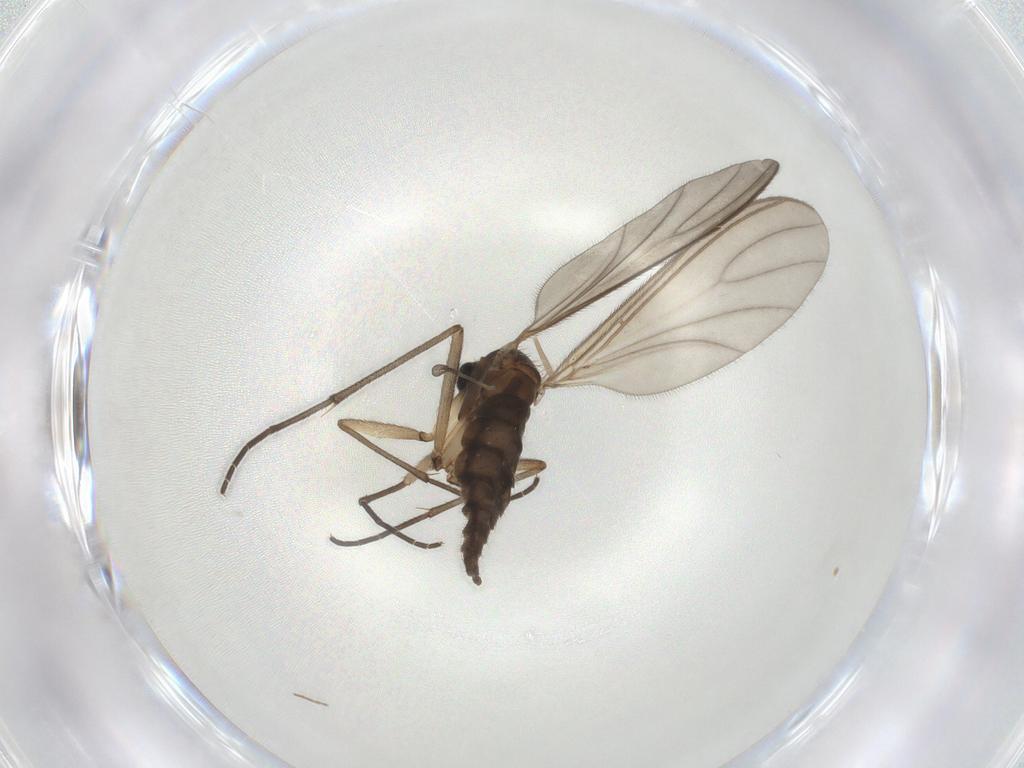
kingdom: Animalia
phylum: Arthropoda
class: Insecta
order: Diptera
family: Sciaridae
